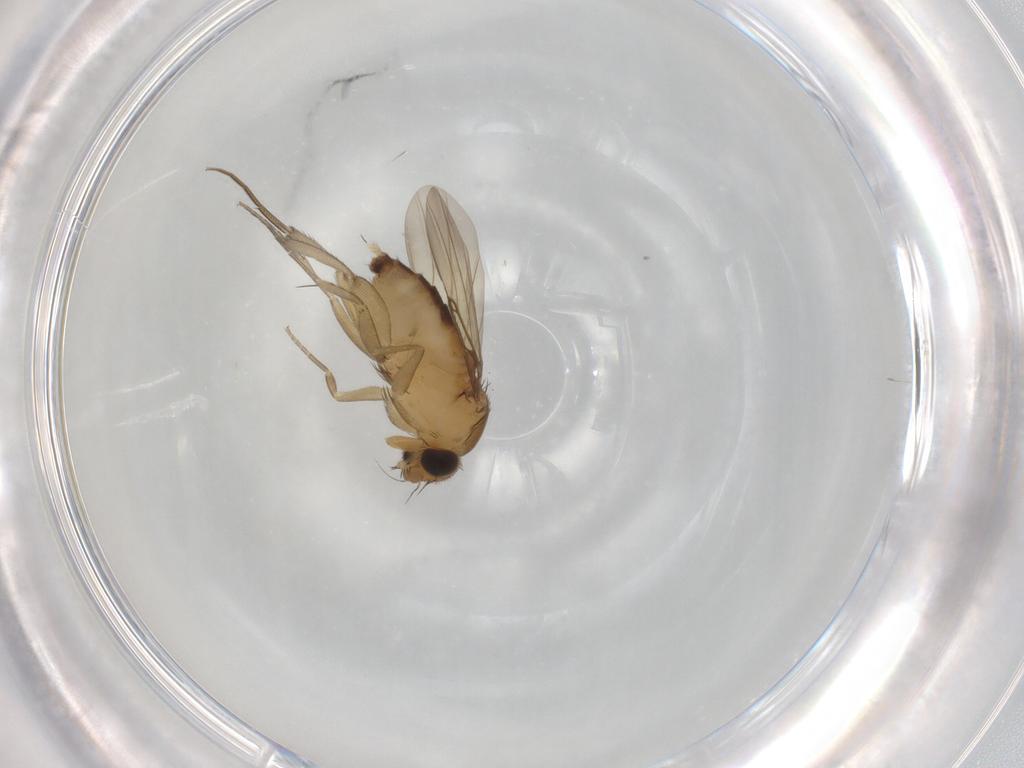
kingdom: Animalia
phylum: Arthropoda
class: Insecta
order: Diptera
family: Phoridae
